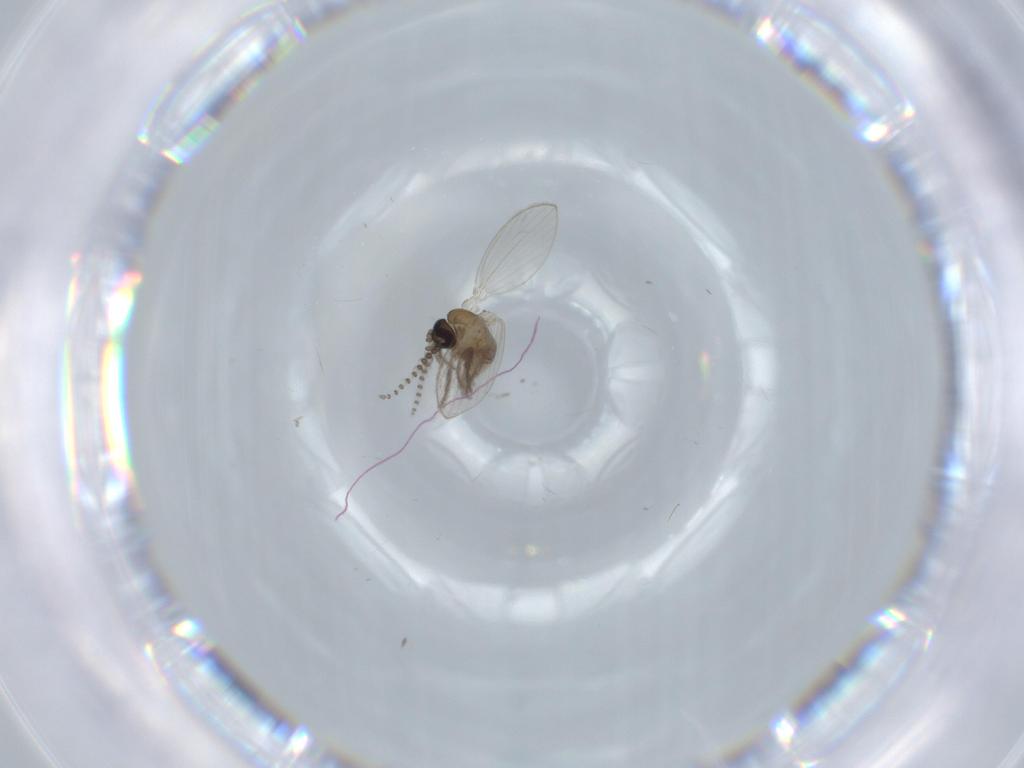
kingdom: Animalia
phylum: Arthropoda
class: Insecta
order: Diptera
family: Psychodidae
